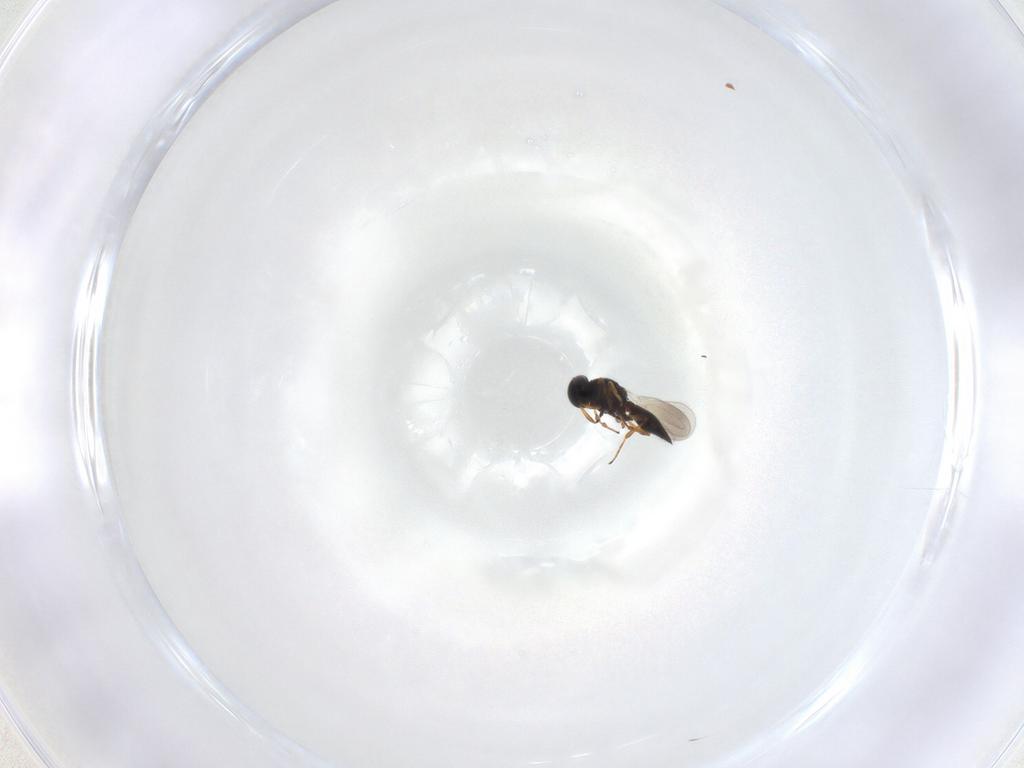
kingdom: Animalia
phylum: Arthropoda
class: Insecta
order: Hymenoptera
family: Platygastridae
